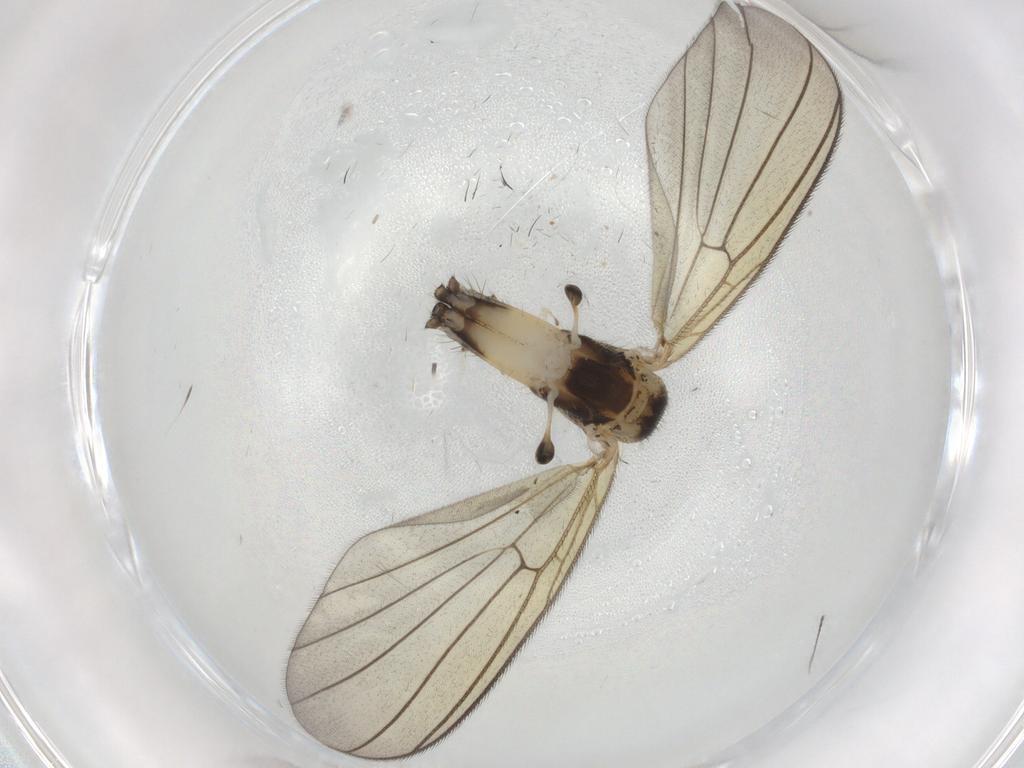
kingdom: Animalia
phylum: Arthropoda
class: Insecta
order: Diptera
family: Mycetophilidae
